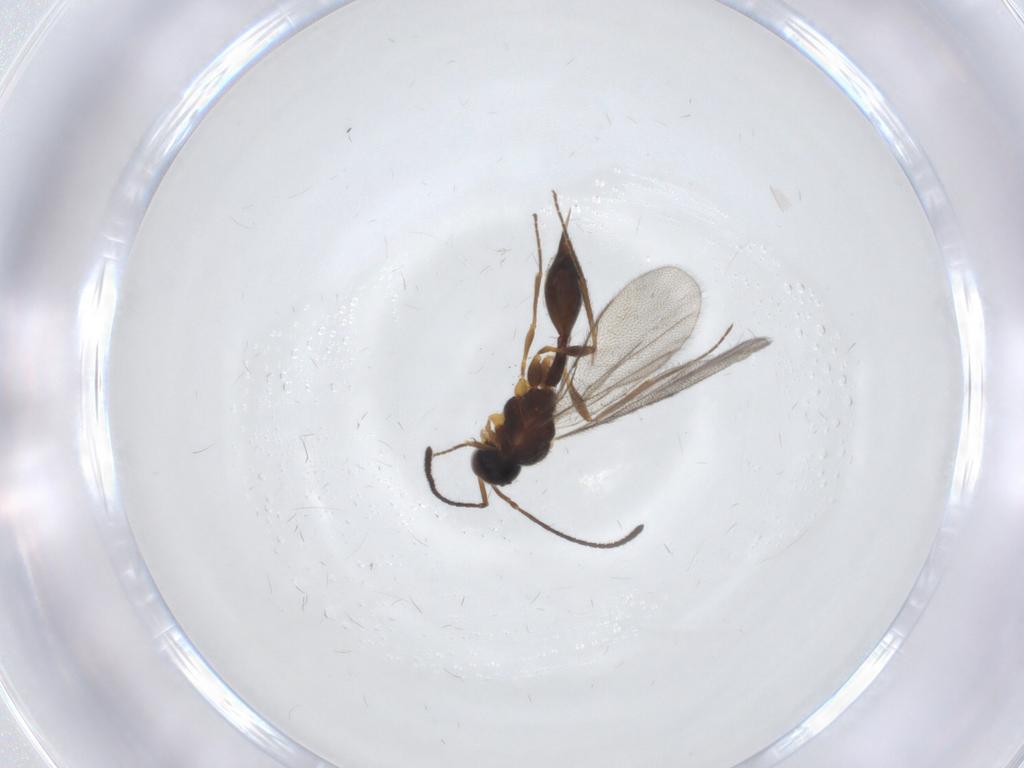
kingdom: Animalia
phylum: Arthropoda
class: Insecta
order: Hymenoptera
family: Diapriidae
